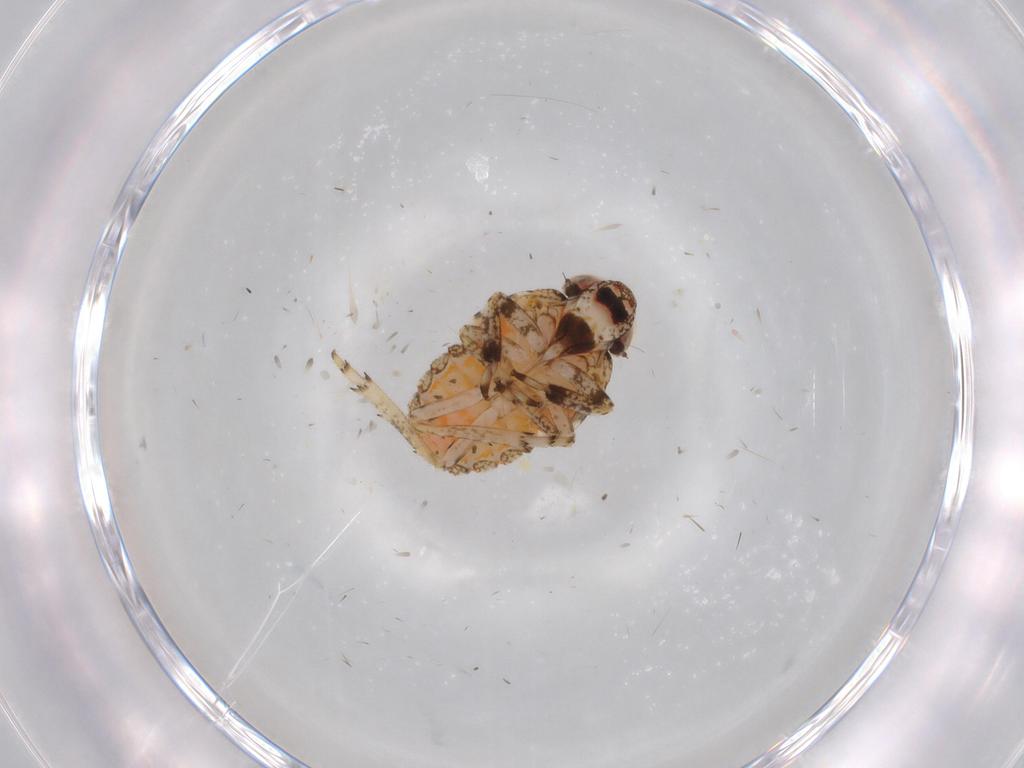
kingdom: Animalia
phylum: Arthropoda
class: Insecta
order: Hemiptera
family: Issidae
